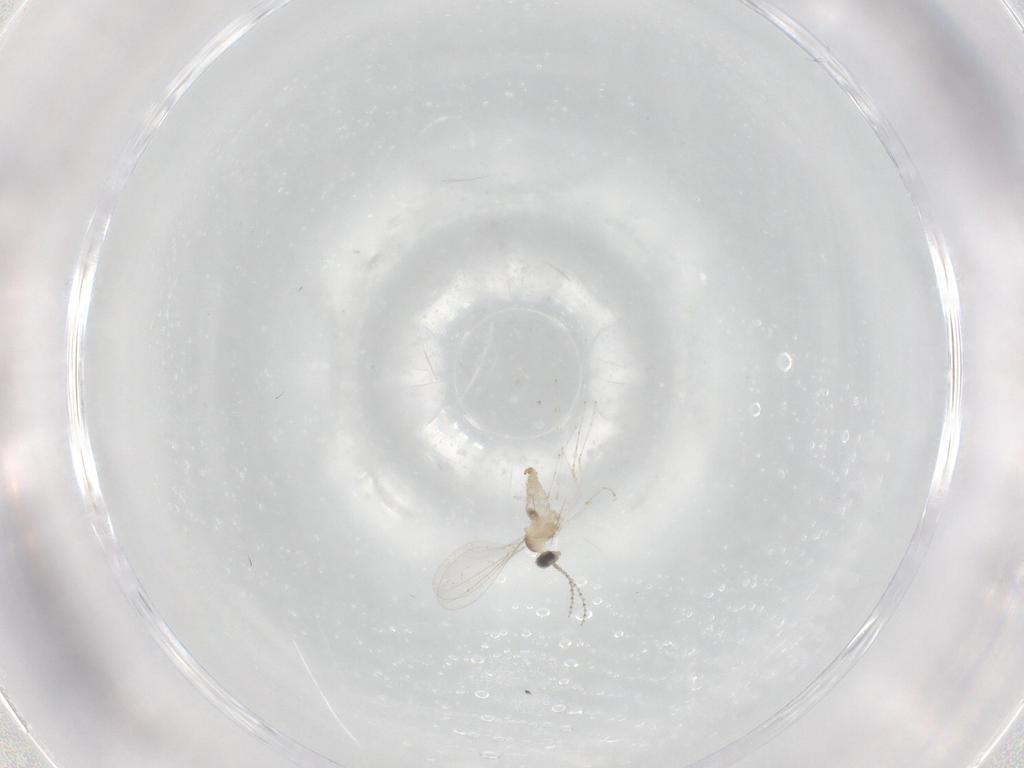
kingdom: Animalia
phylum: Arthropoda
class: Insecta
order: Diptera
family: Cecidomyiidae
